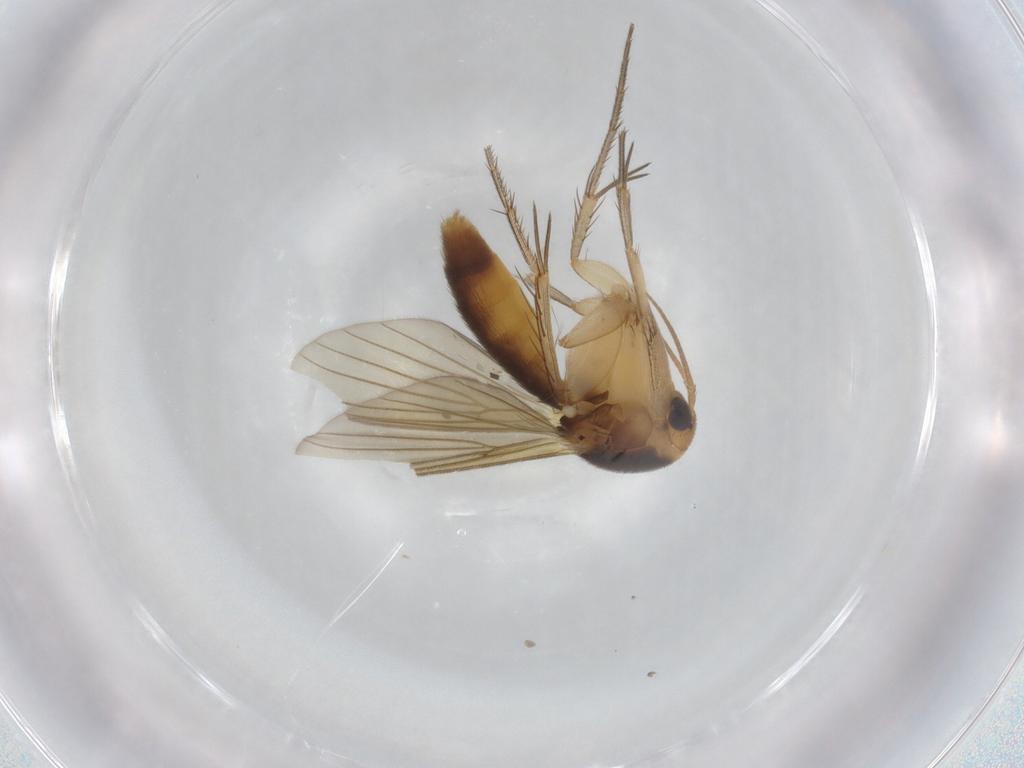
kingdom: Animalia
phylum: Arthropoda
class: Insecta
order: Diptera
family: Mycetophilidae
